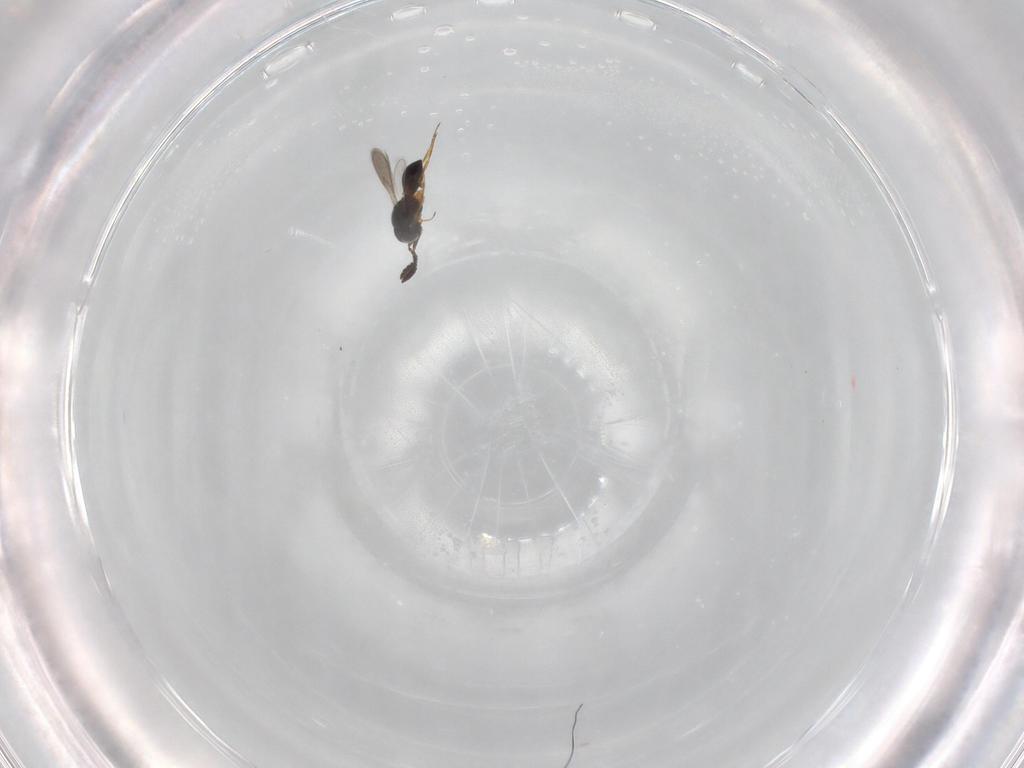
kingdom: Animalia
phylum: Arthropoda
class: Insecta
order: Hymenoptera
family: Scelionidae
